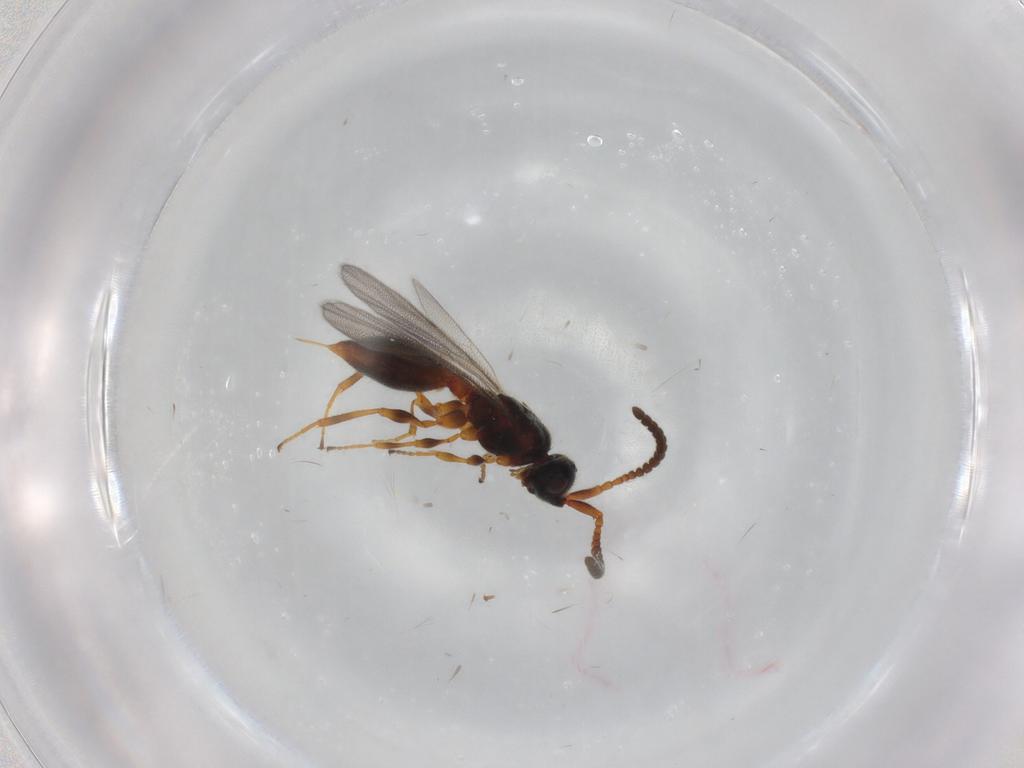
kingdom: Animalia
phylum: Arthropoda
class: Insecta
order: Hymenoptera
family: Diapriidae
